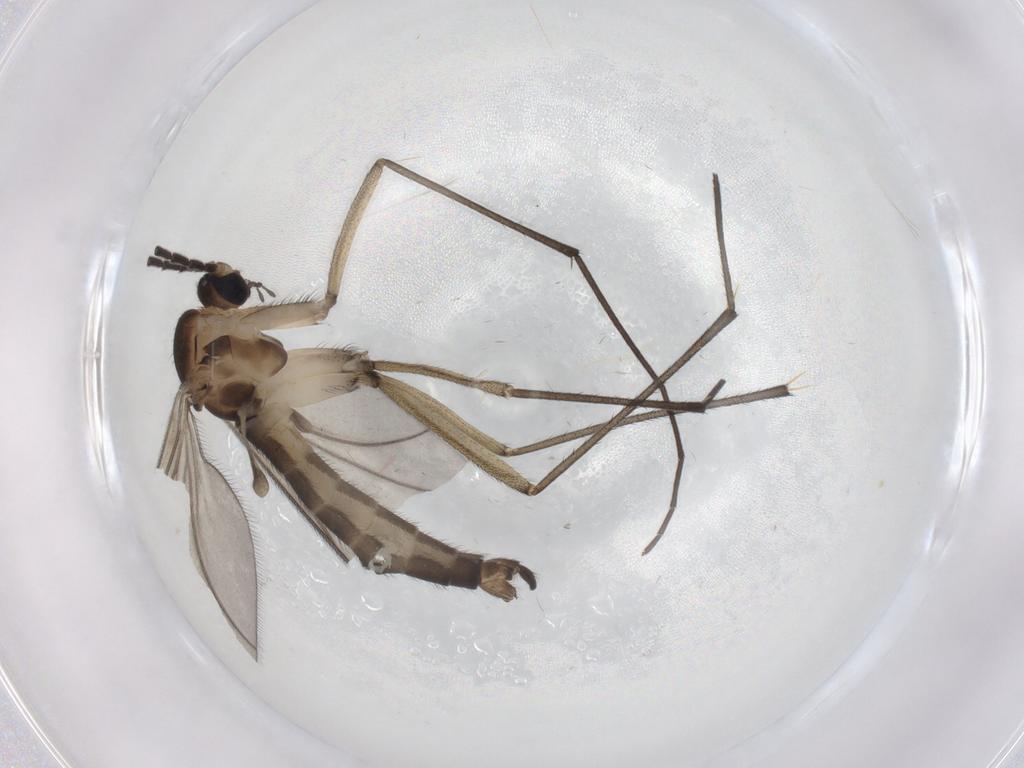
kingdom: Animalia
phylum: Arthropoda
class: Insecta
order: Diptera
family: Sciaridae
